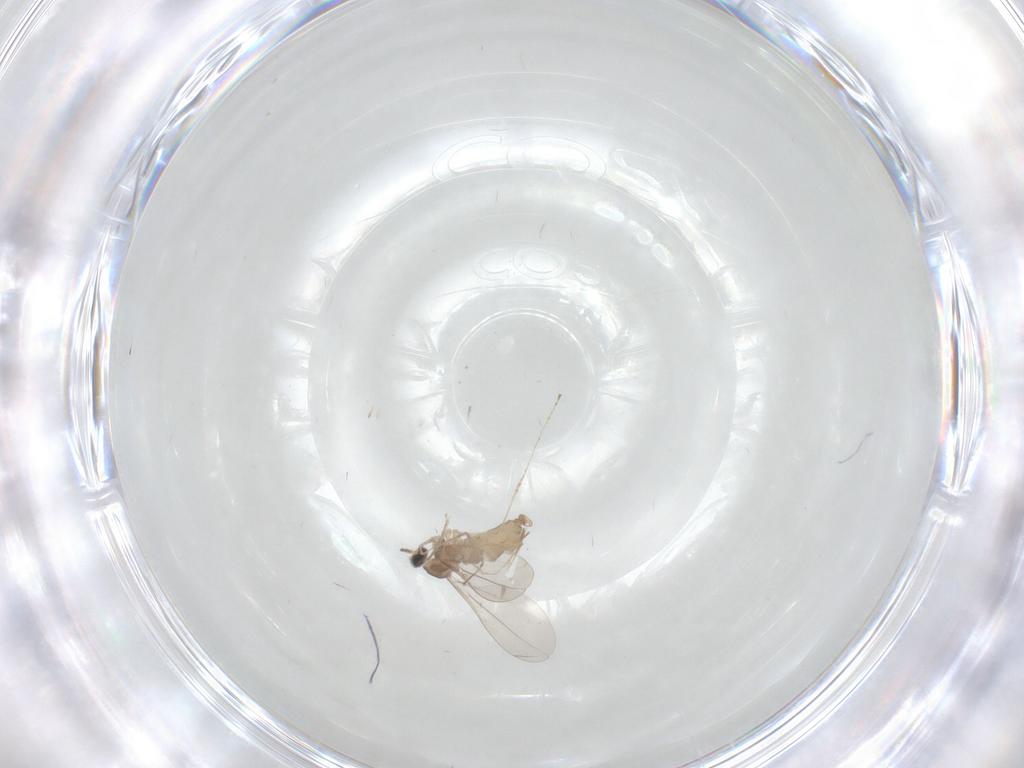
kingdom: Animalia
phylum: Arthropoda
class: Insecta
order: Diptera
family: Cecidomyiidae
